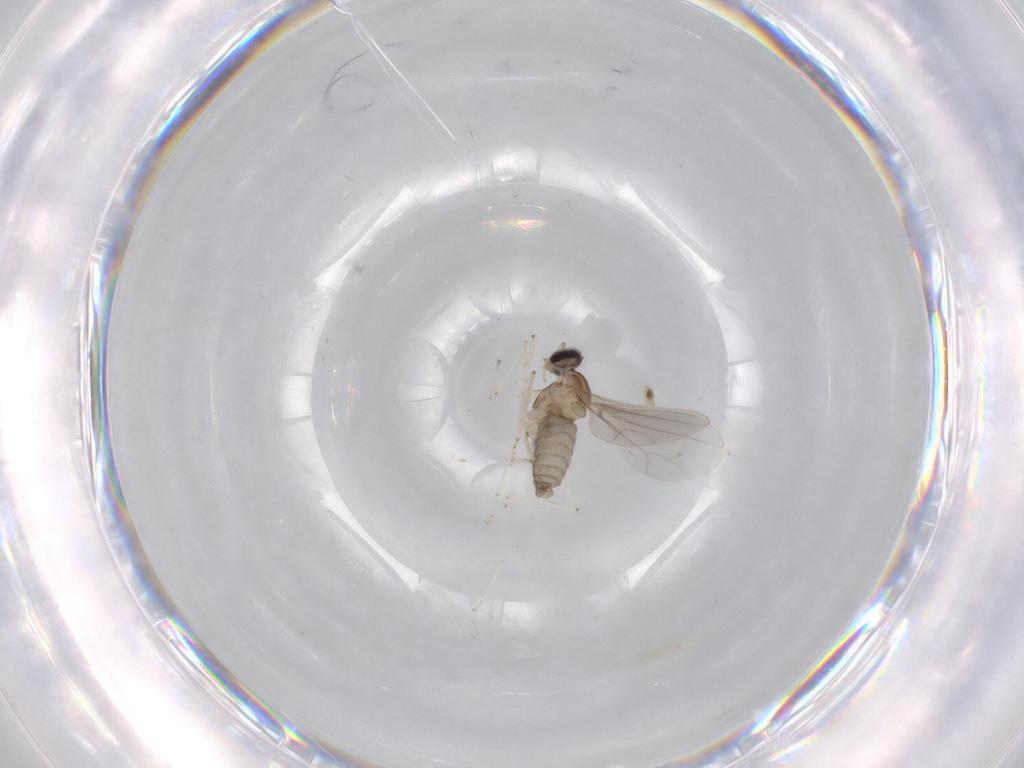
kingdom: Animalia
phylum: Arthropoda
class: Insecta
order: Diptera
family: Cecidomyiidae
